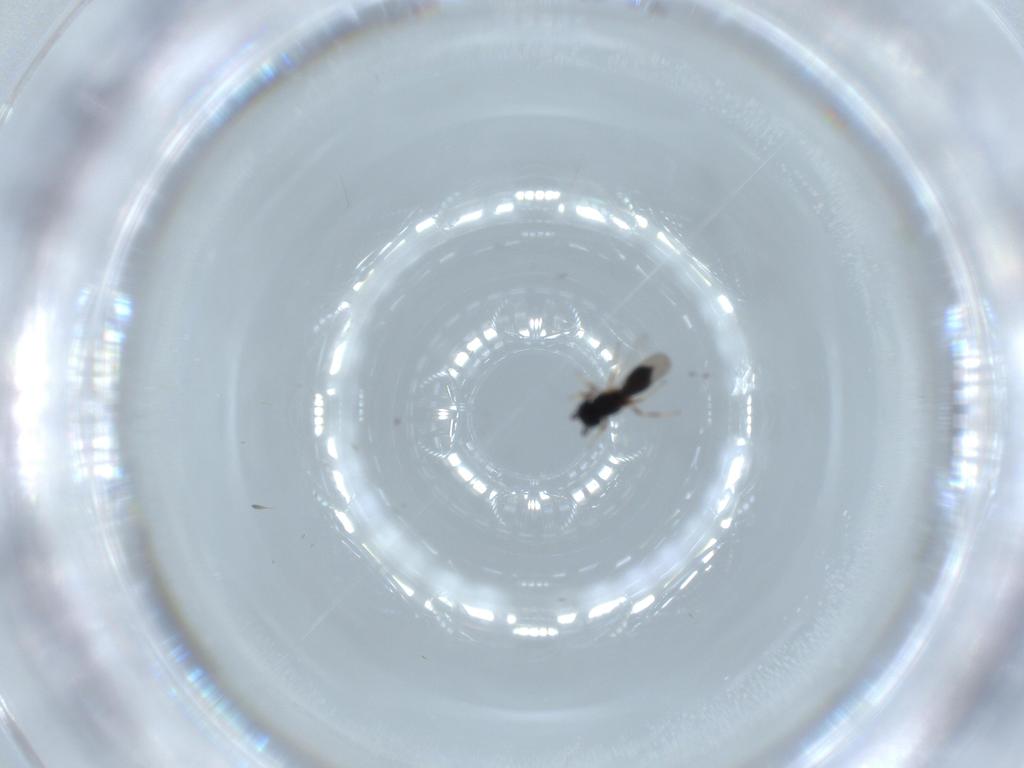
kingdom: Animalia
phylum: Arthropoda
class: Insecta
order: Hymenoptera
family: Scelionidae
